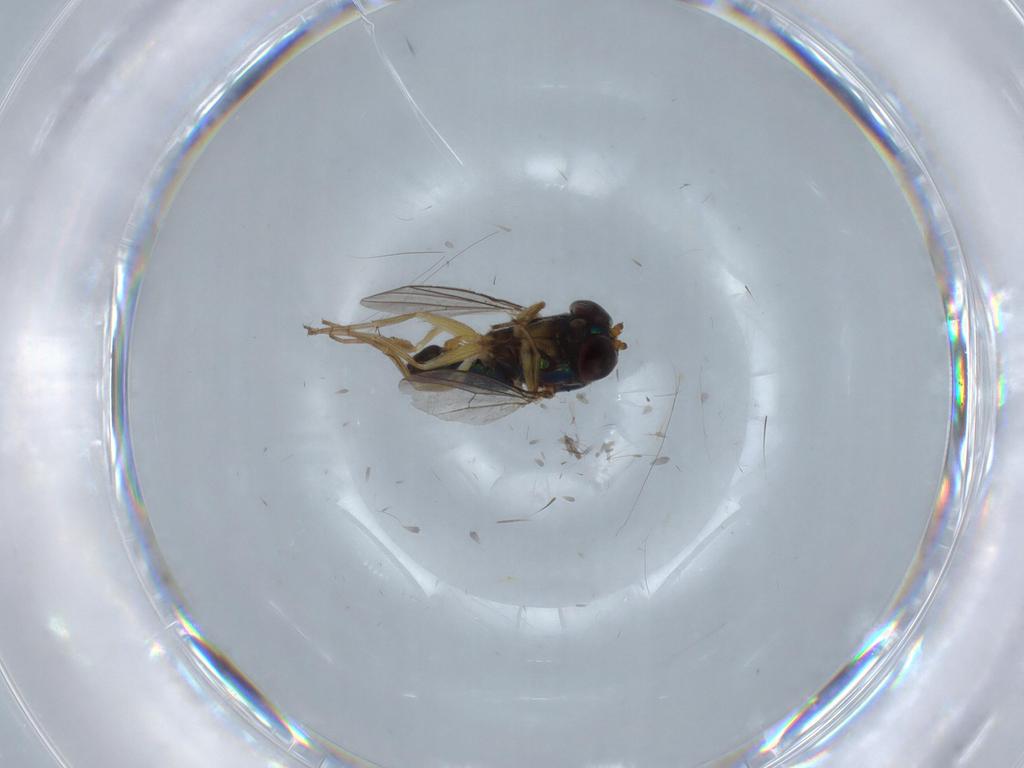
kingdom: Animalia
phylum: Arthropoda
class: Insecta
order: Diptera
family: Dolichopodidae
